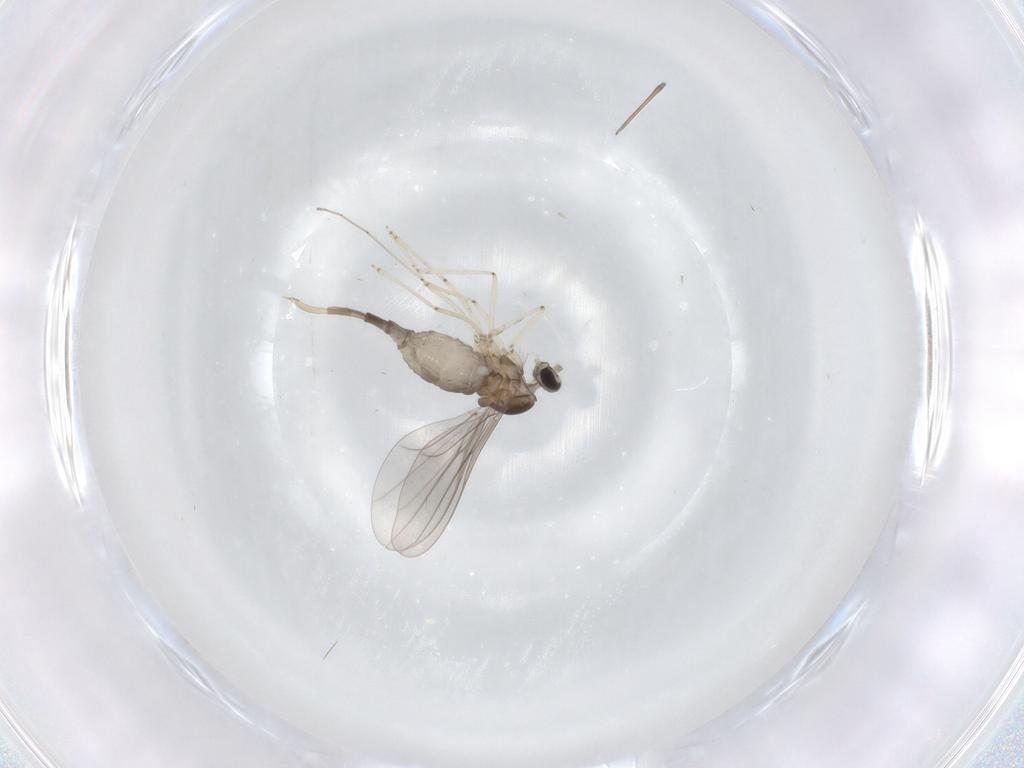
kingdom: Animalia
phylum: Arthropoda
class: Insecta
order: Diptera
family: Cecidomyiidae
